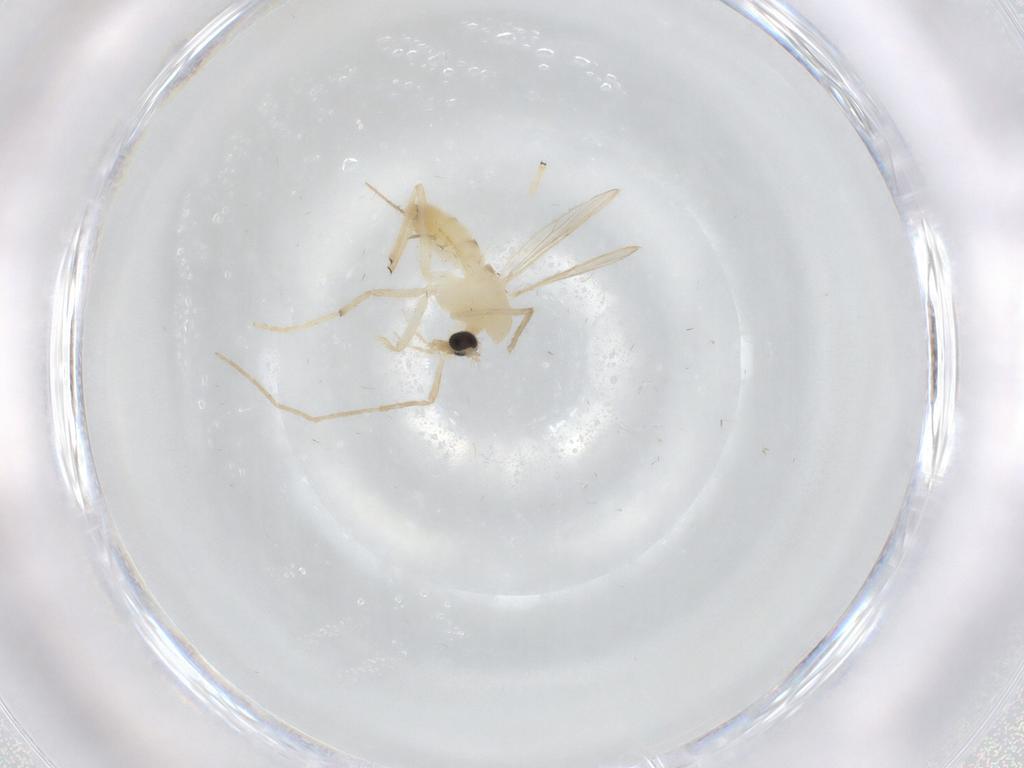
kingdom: Animalia
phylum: Arthropoda
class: Insecta
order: Diptera
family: Chironomidae
